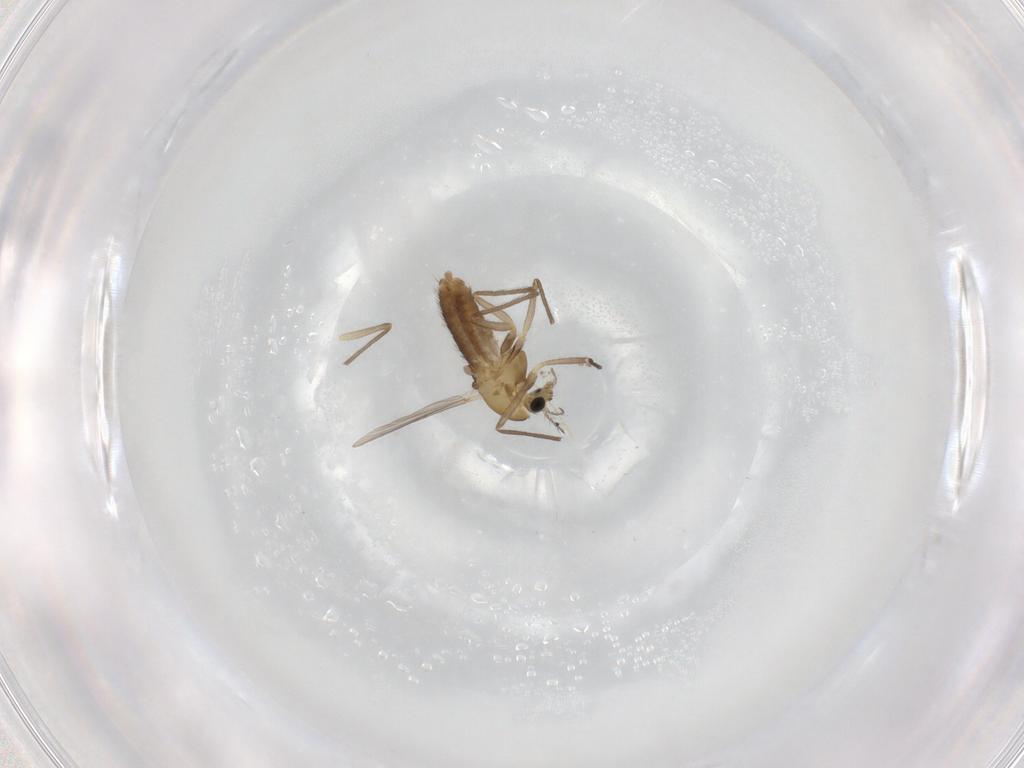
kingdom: Animalia
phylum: Arthropoda
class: Insecta
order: Diptera
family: Chironomidae
